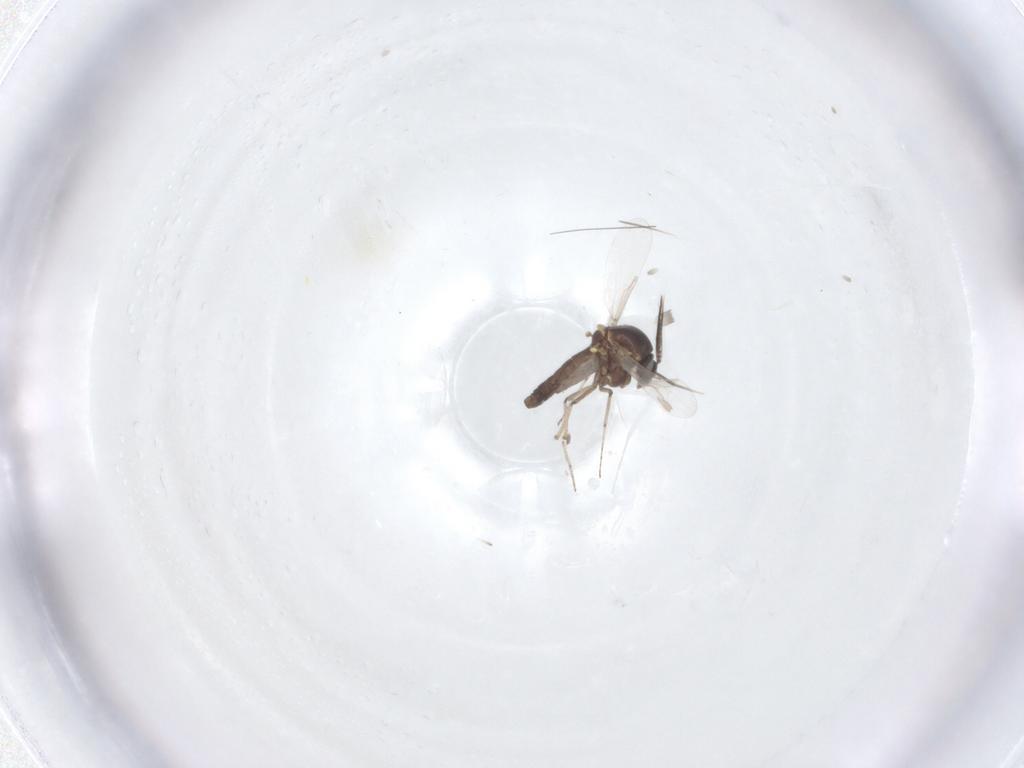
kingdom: Animalia
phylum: Arthropoda
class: Insecta
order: Diptera
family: Ceratopogonidae
